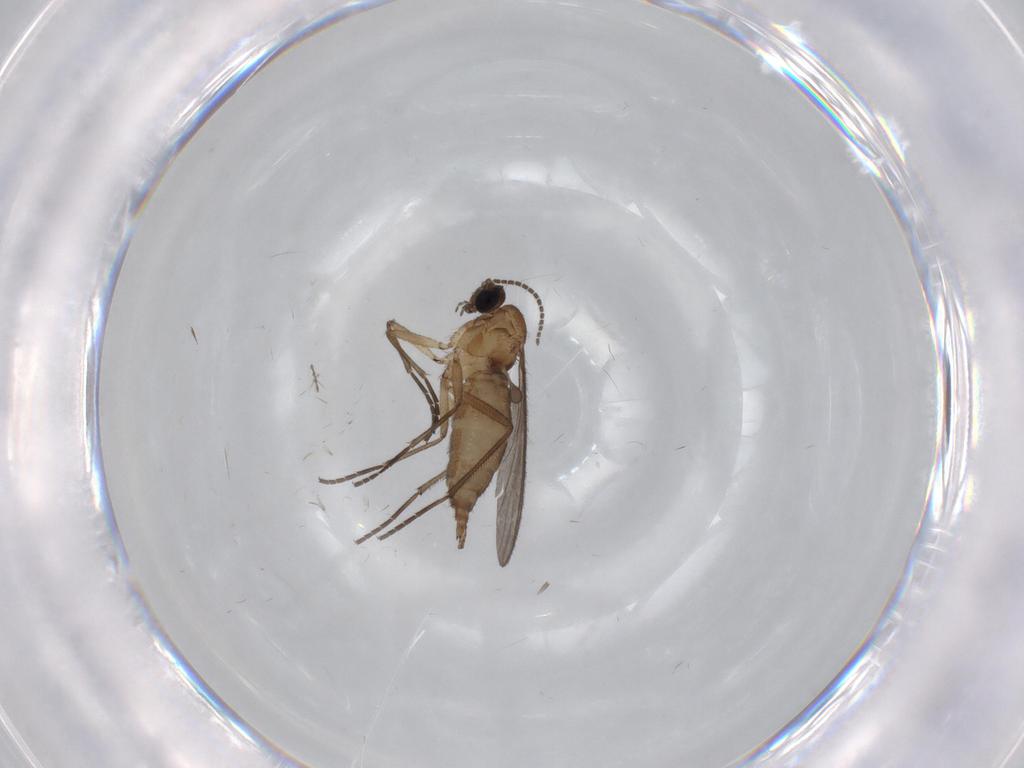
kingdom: Animalia
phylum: Arthropoda
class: Insecta
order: Diptera
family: Chironomidae
